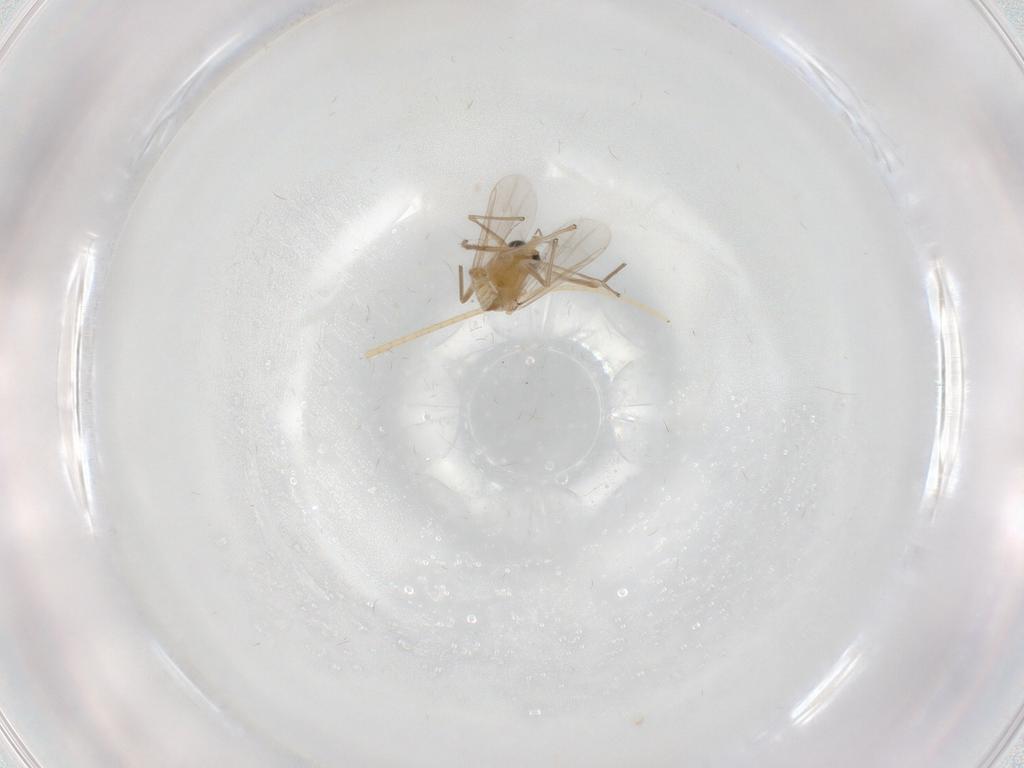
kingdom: Animalia
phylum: Arthropoda
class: Insecta
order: Diptera
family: Chironomidae
